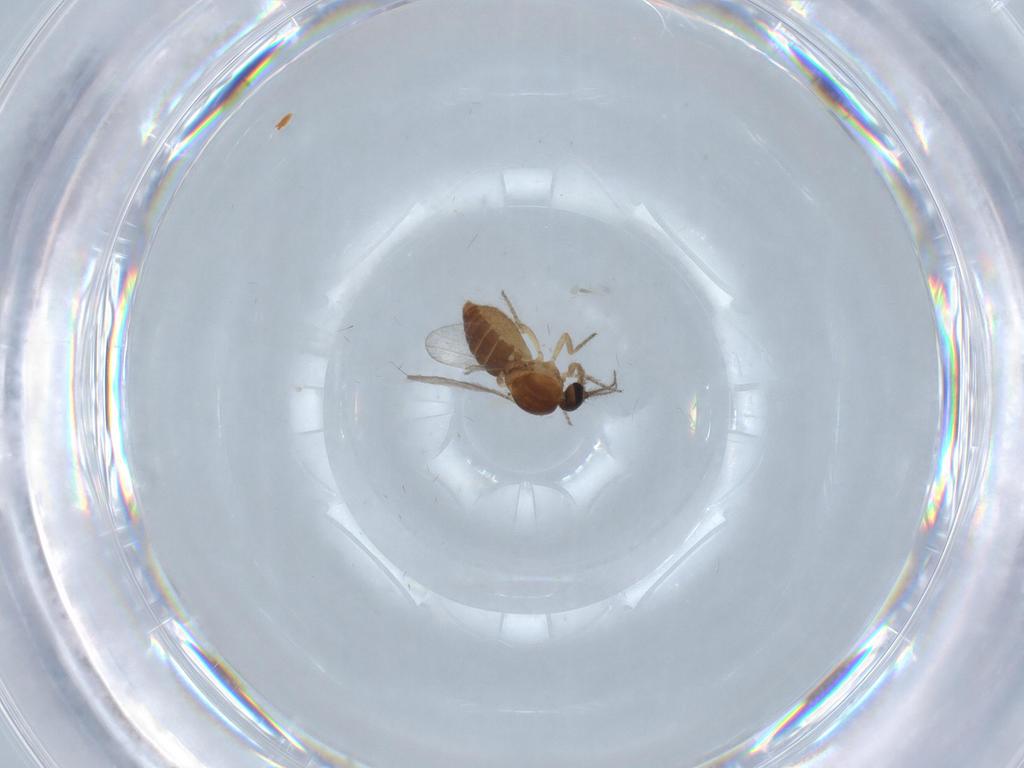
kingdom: Animalia
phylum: Arthropoda
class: Insecta
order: Diptera
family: Ceratopogonidae
